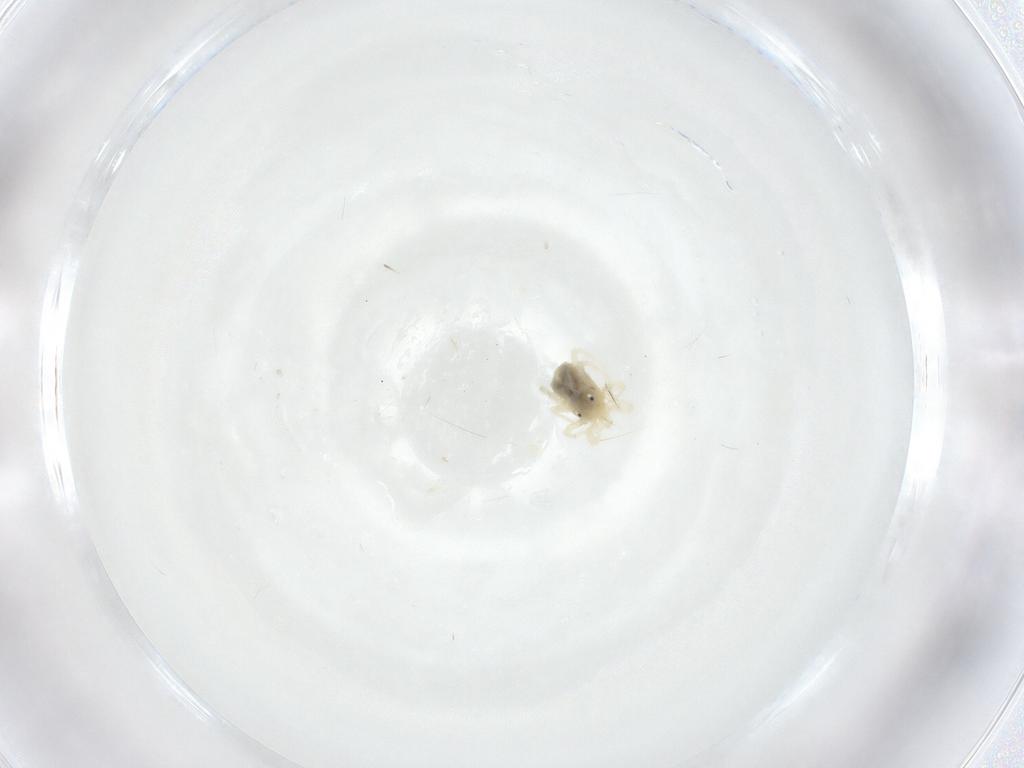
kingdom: Animalia
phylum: Arthropoda
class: Arachnida
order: Trombidiformes
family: Anystidae
